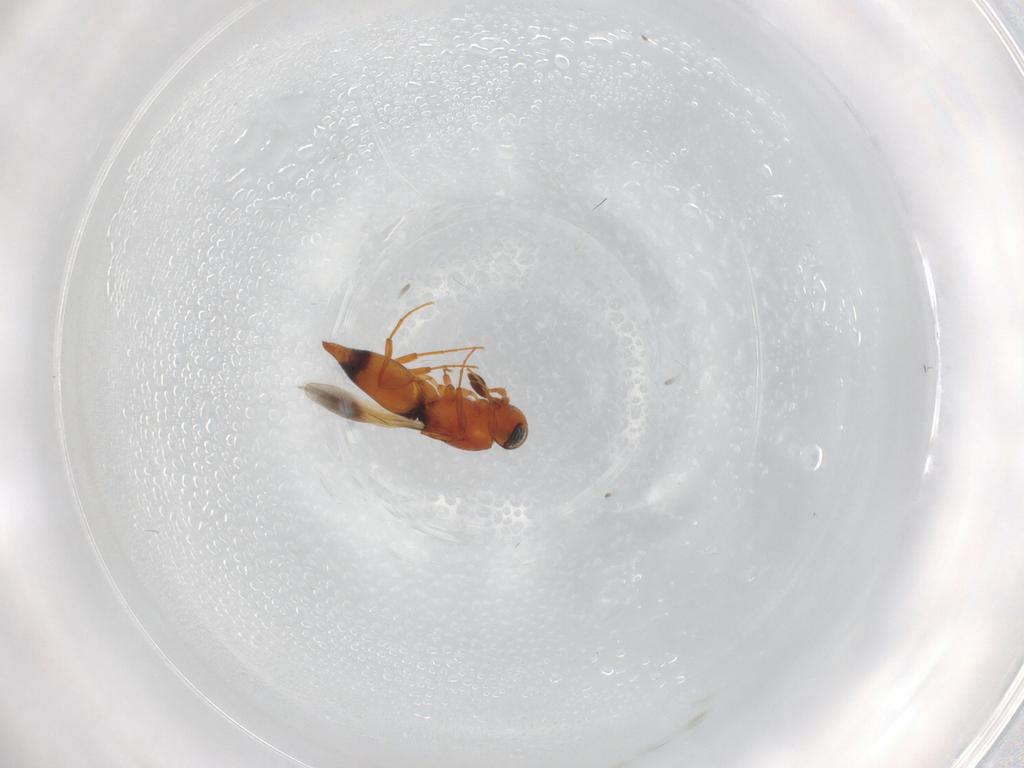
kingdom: Animalia
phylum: Arthropoda
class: Insecta
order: Hymenoptera
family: Platygastridae
